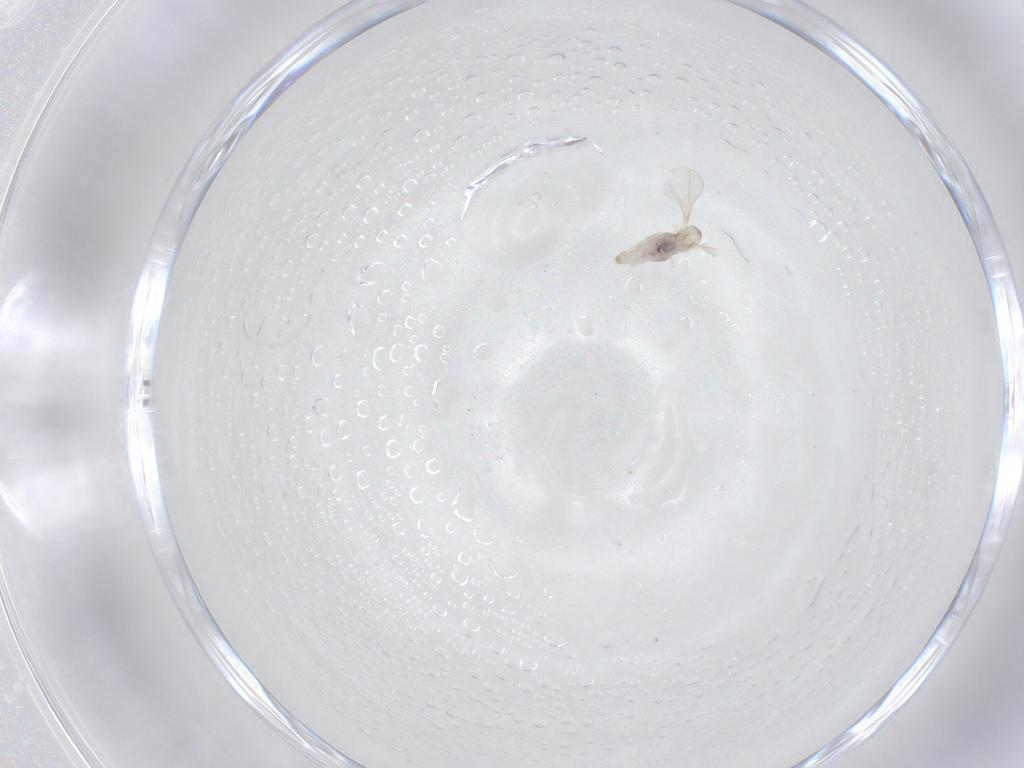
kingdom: Animalia
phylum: Arthropoda
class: Insecta
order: Diptera
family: Cecidomyiidae
